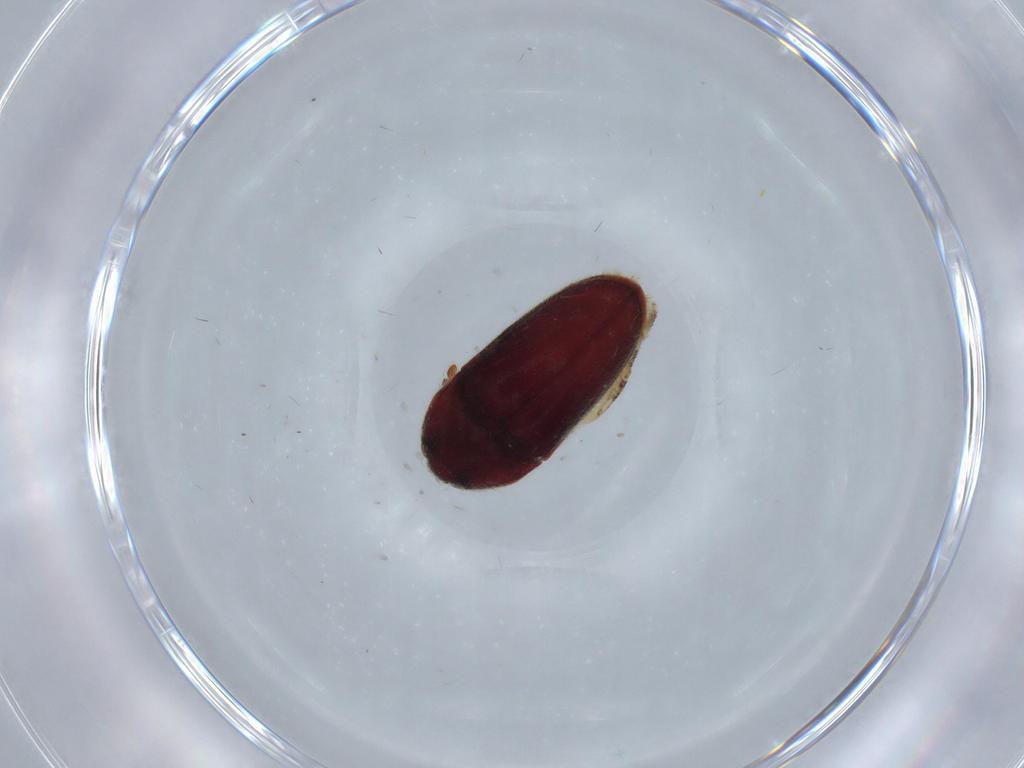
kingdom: Animalia
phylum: Arthropoda
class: Insecta
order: Coleoptera
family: Throscidae
